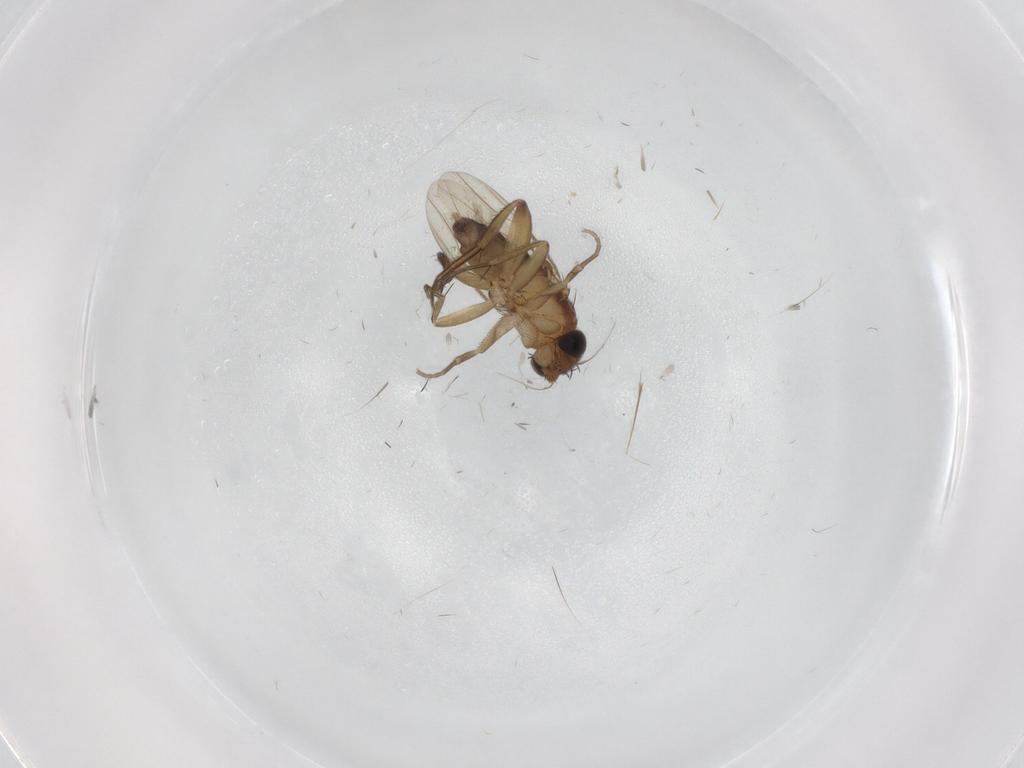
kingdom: Animalia
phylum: Arthropoda
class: Insecta
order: Diptera
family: Phoridae
